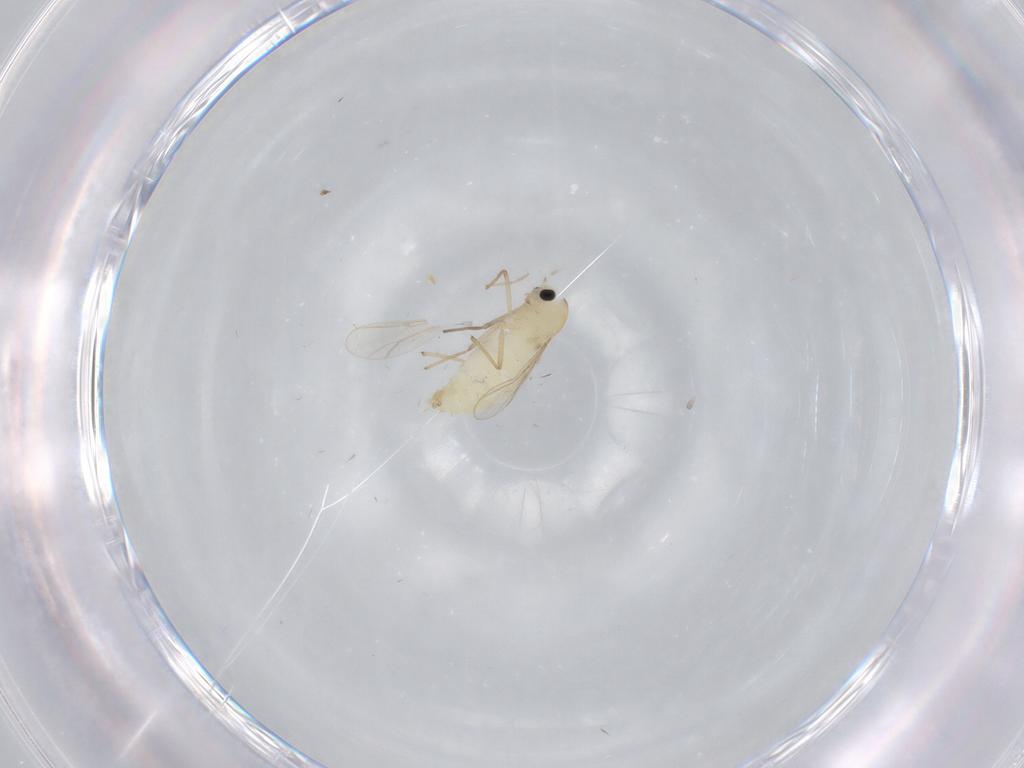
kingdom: Animalia
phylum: Arthropoda
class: Insecta
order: Diptera
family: Chironomidae
